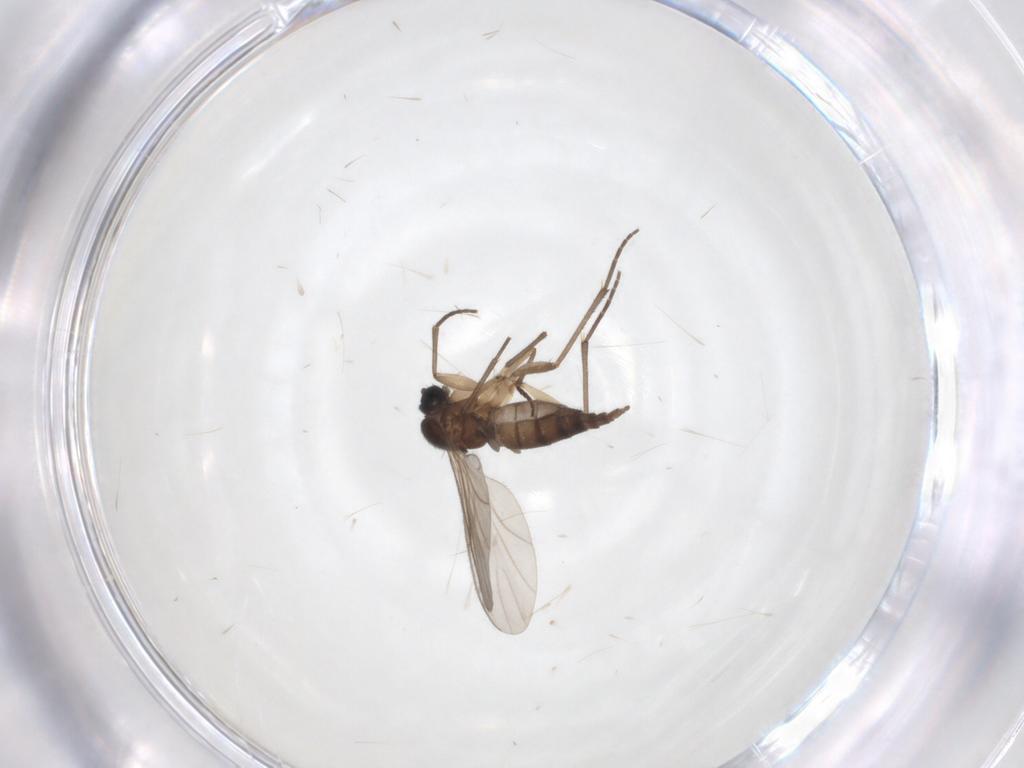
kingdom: Animalia
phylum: Arthropoda
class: Insecta
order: Diptera
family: Sciaridae
